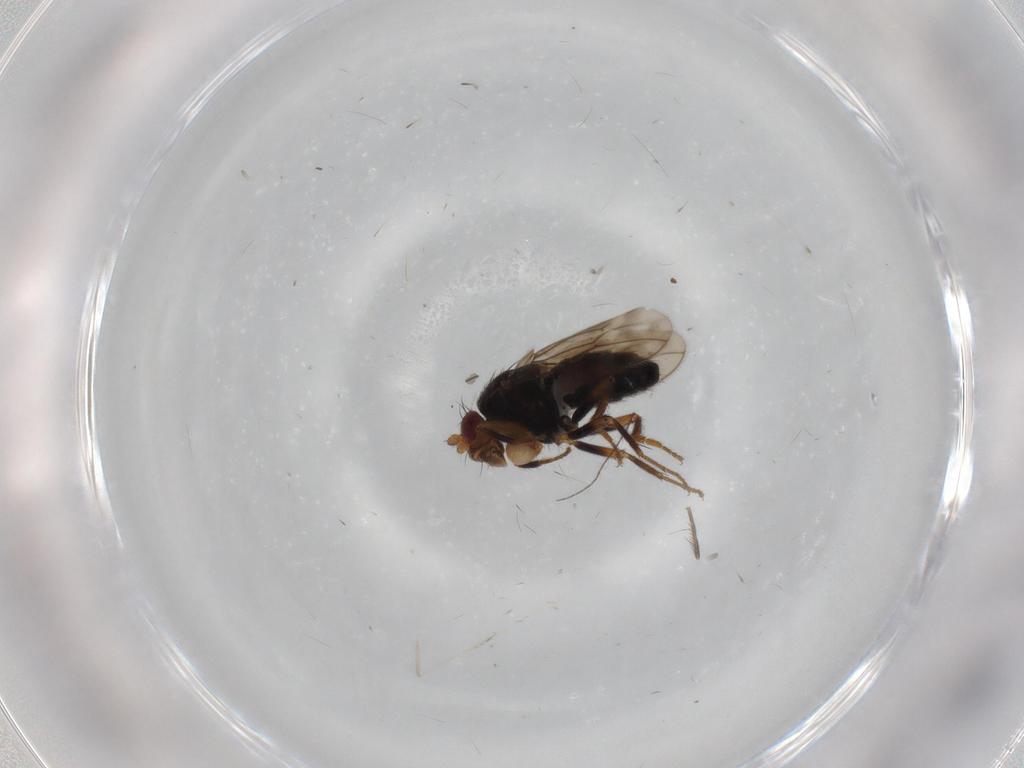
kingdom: Animalia
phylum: Arthropoda
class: Insecta
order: Diptera
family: Sphaeroceridae
